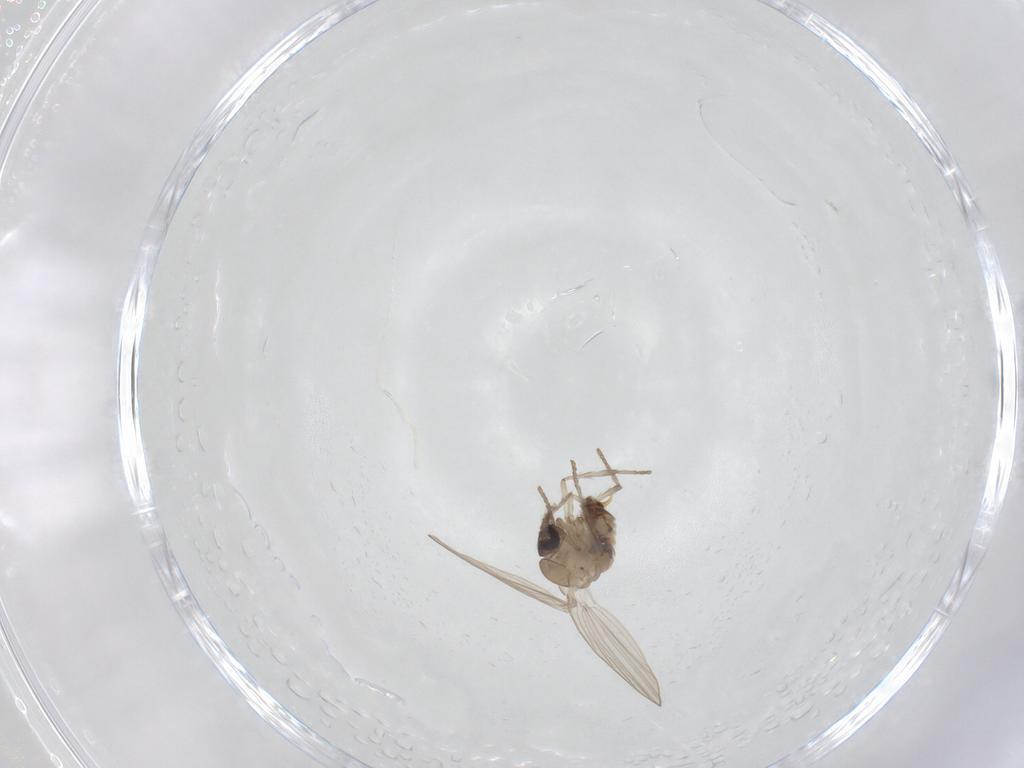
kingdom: Animalia
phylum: Arthropoda
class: Insecta
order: Diptera
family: Psychodidae
